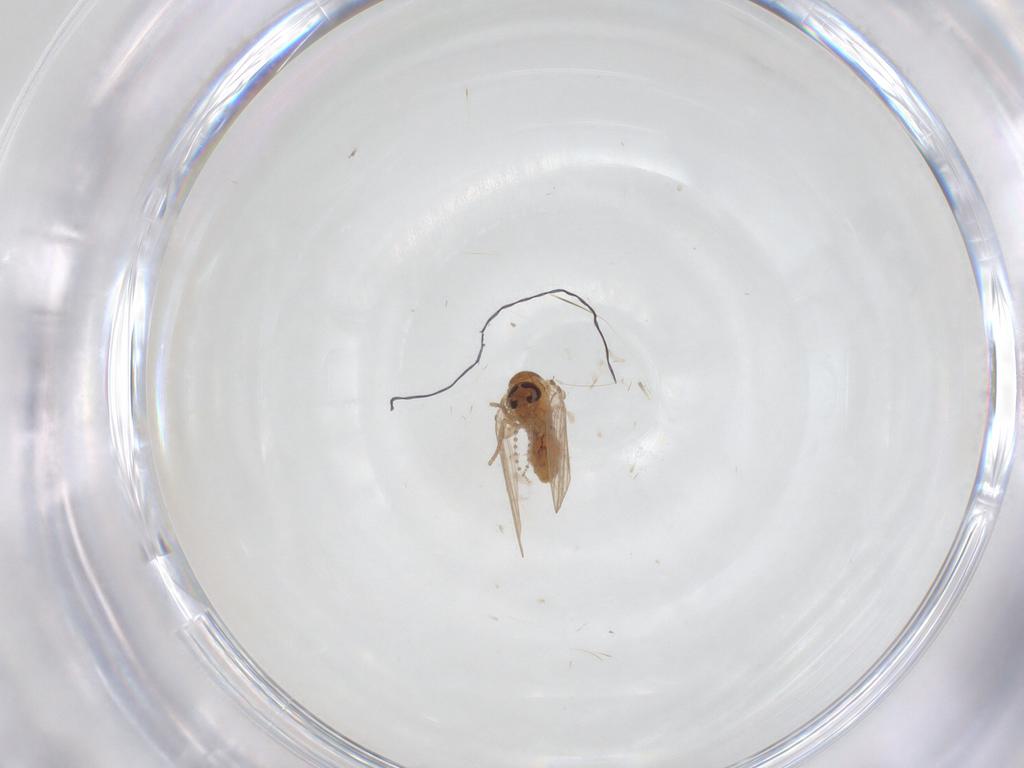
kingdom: Animalia
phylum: Arthropoda
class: Insecta
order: Diptera
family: Psychodidae
